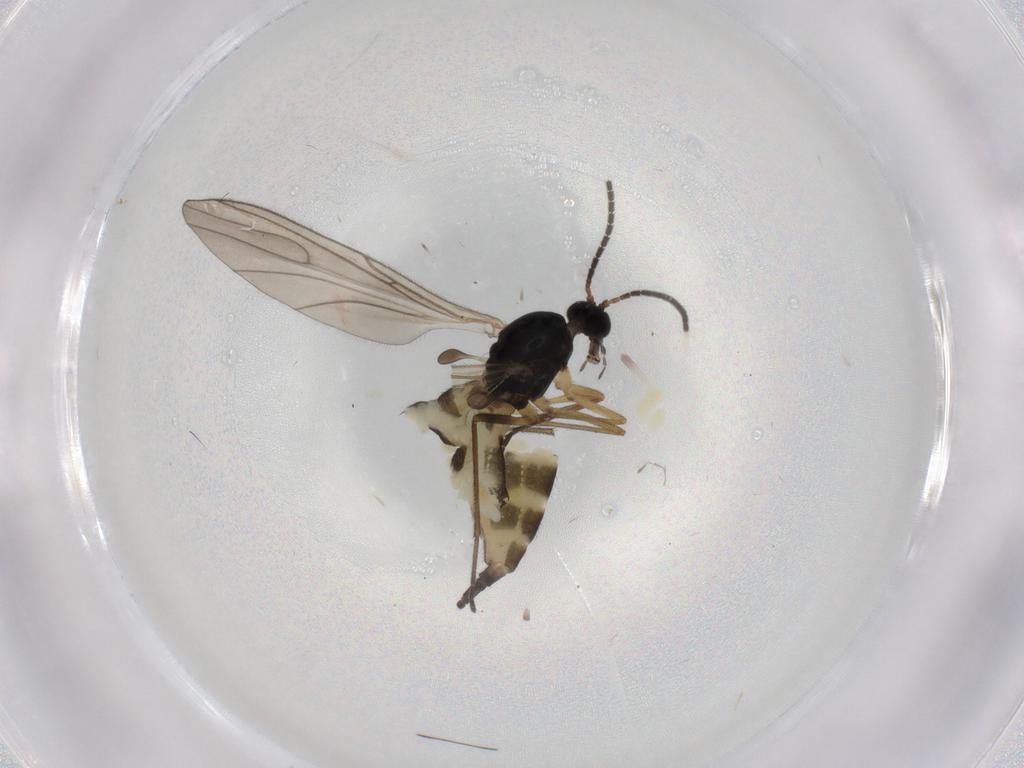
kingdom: Animalia
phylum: Arthropoda
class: Insecta
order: Diptera
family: Sciaridae
